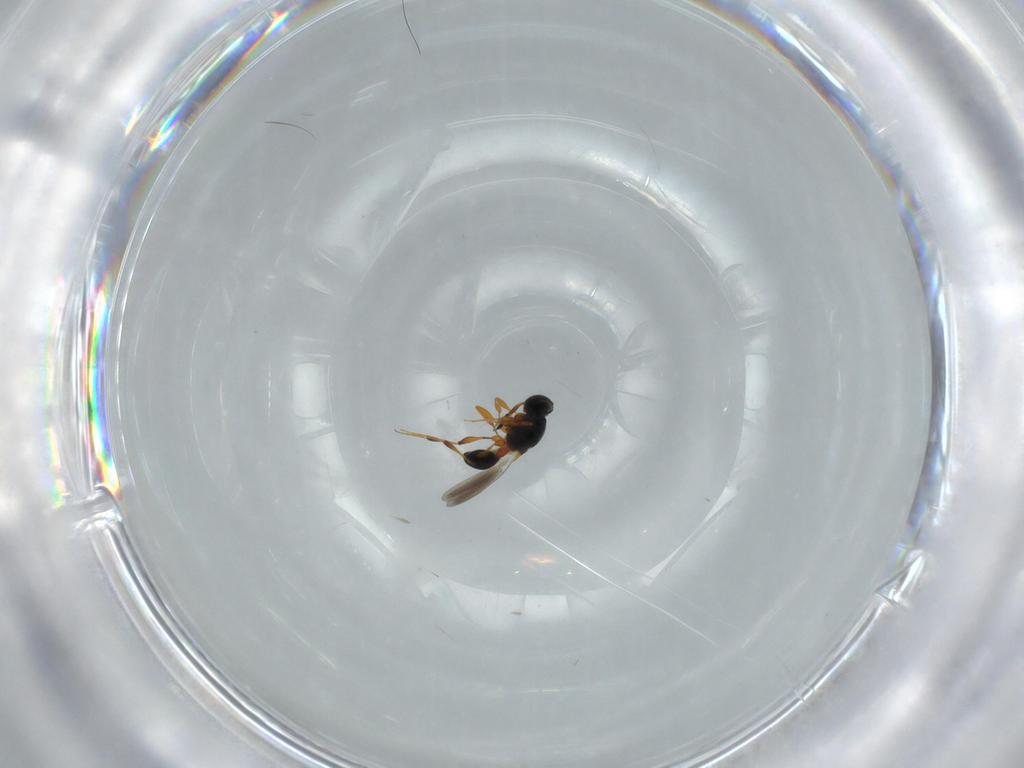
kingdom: Animalia
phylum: Arthropoda
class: Insecta
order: Hymenoptera
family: Platygastridae
